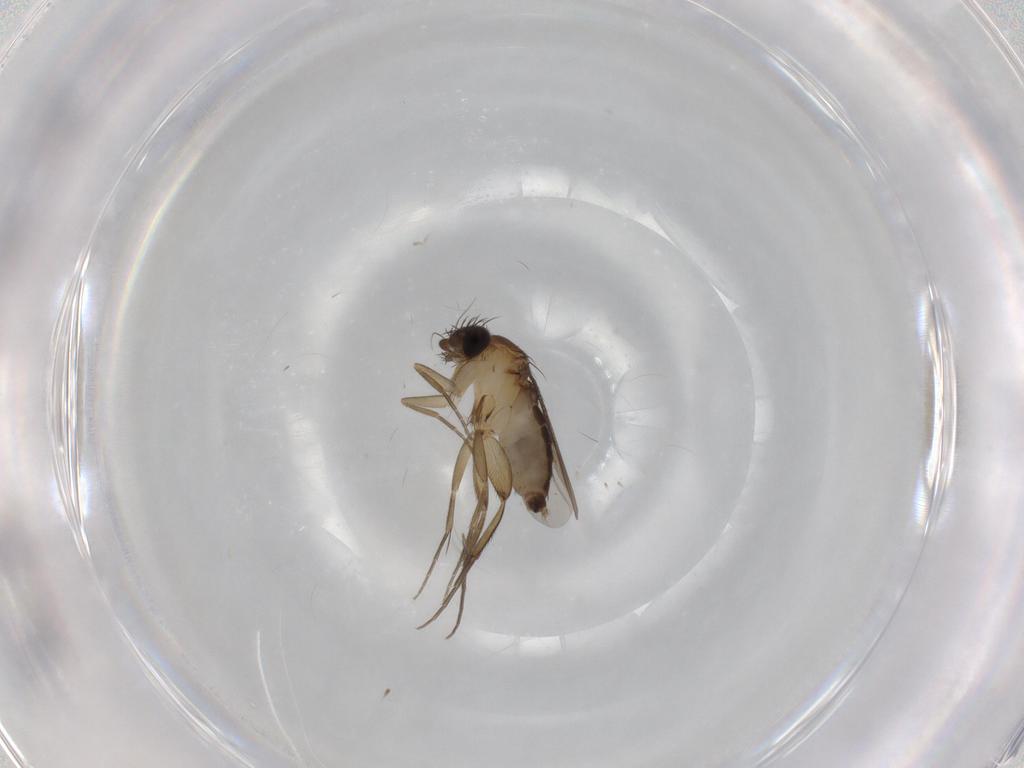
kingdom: Animalia
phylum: Arthropoda
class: Insecta
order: Diptera
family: Phoridae
